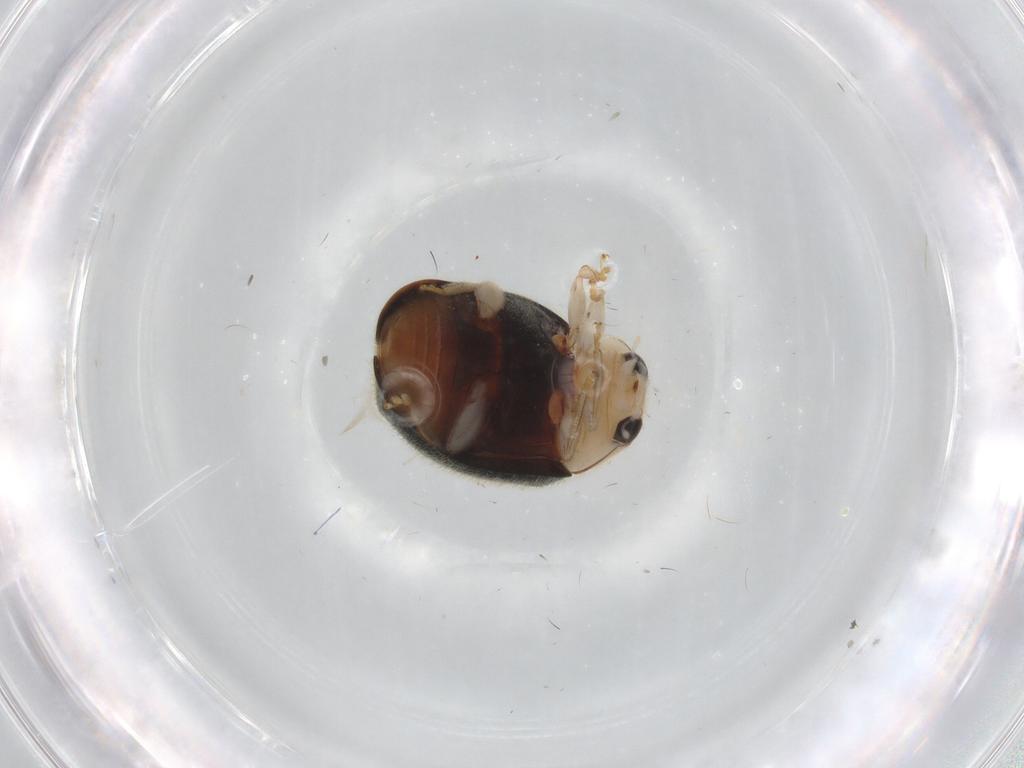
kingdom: Animalia
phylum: Arthropoda
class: Insecta
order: Coleoptera
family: Coccinellidae
